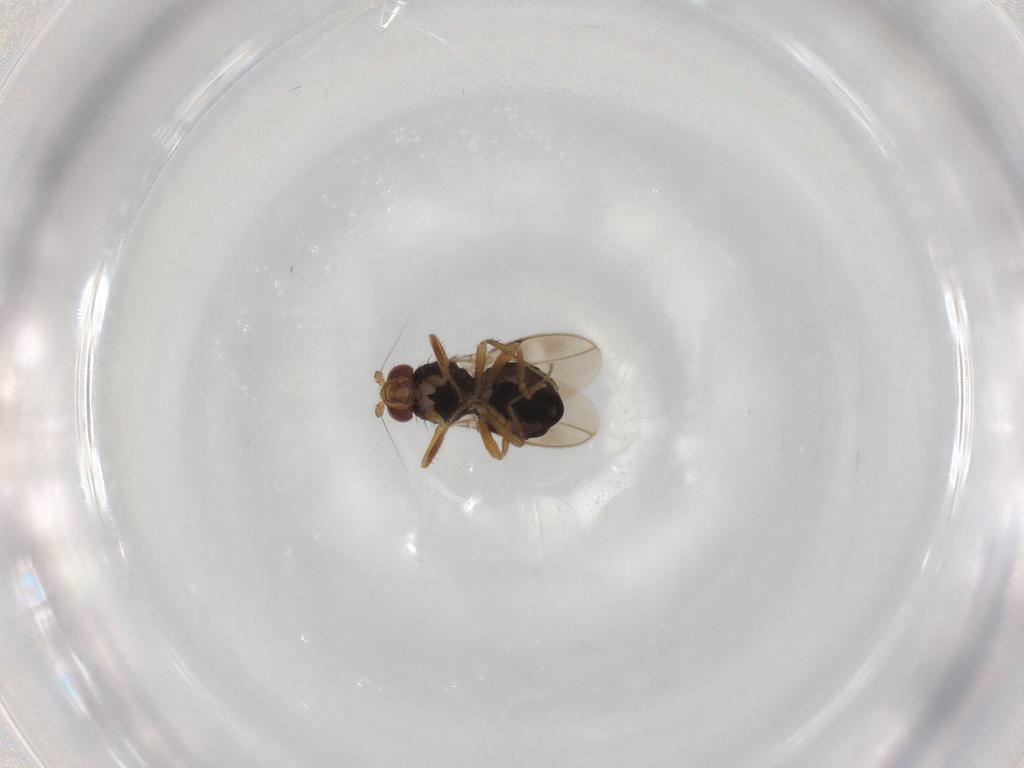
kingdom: Animalia
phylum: Arthropoda
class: Insecta
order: Diptera
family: Sphaeroceridae
